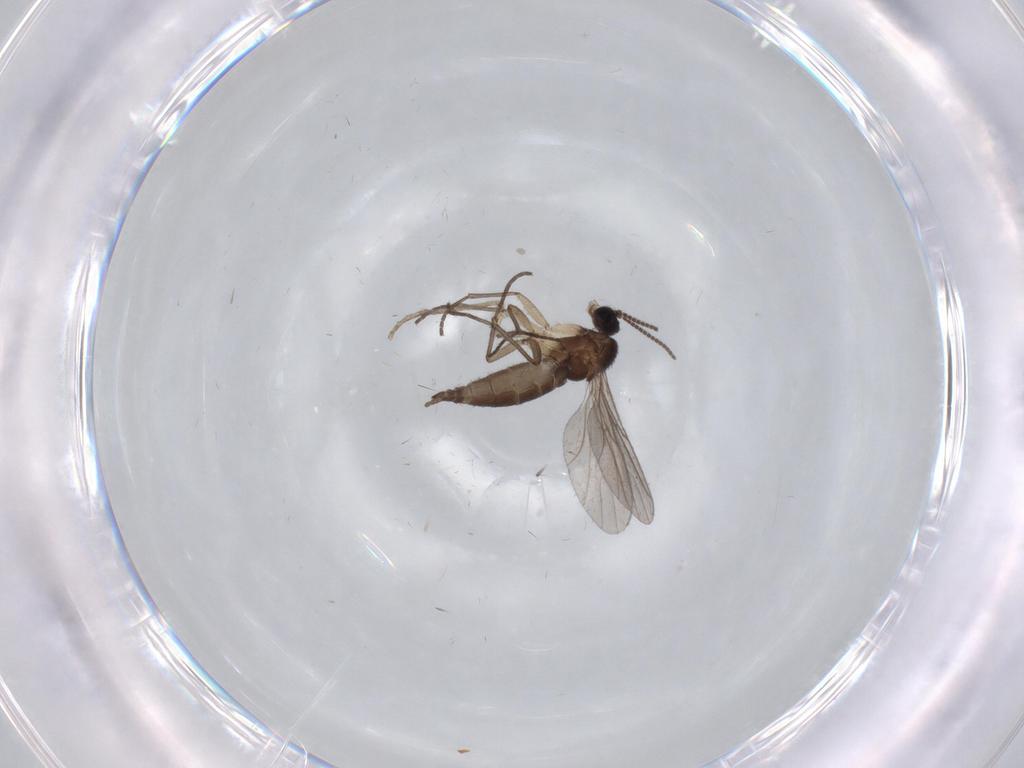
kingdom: Animalia
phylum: Arthropoda
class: Insecta
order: Diptera
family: Sciaridae
